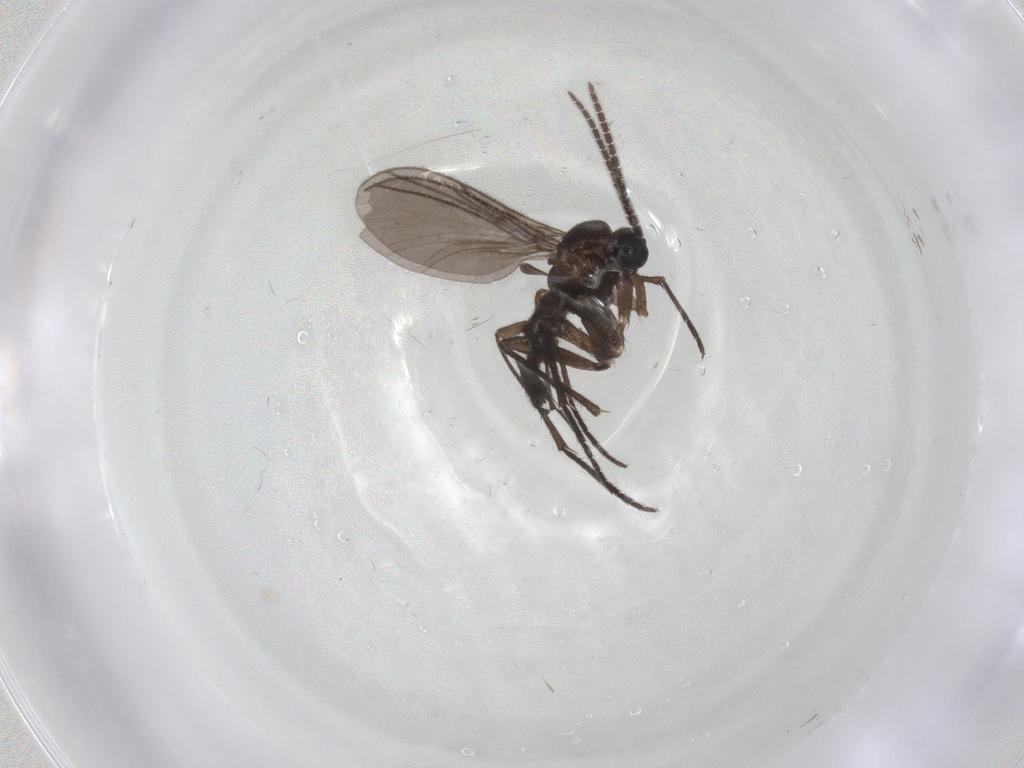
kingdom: Animalia
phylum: Arthropoda
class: Insecta
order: Diptera
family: Sciaridae
